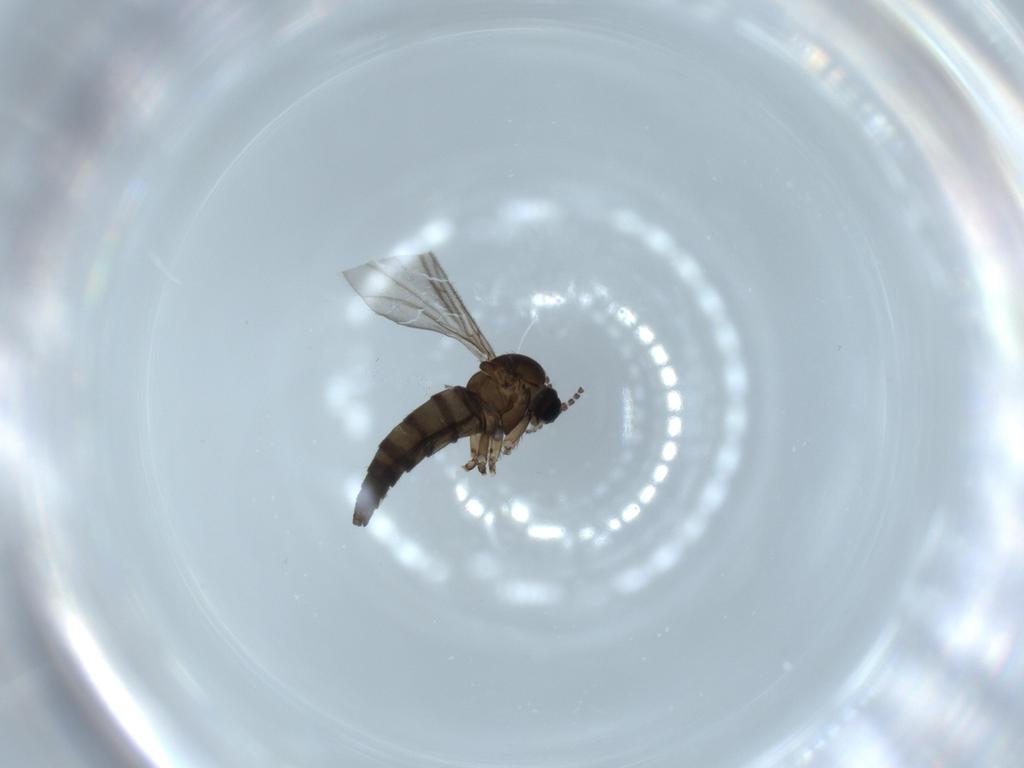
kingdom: Animalia
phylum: Arthropoda
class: Insecta
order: Diptera
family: Sciaridae
